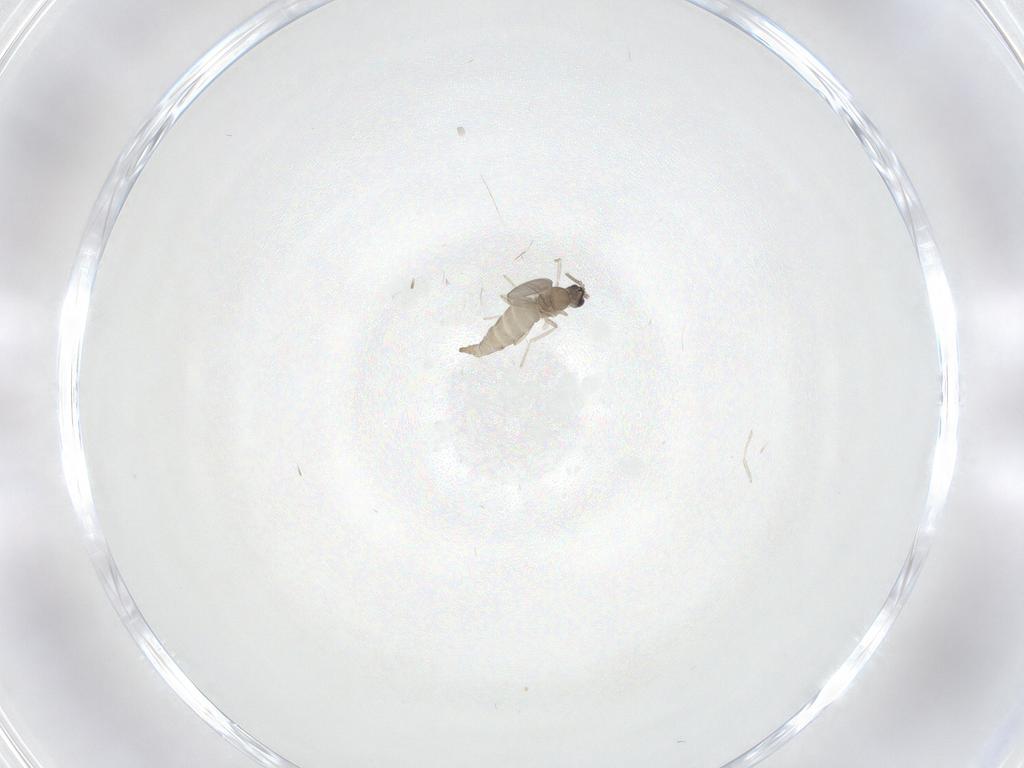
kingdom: Animalia
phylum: Arthropoda
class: Insecta
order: Diptera
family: Cecidomyiidae
